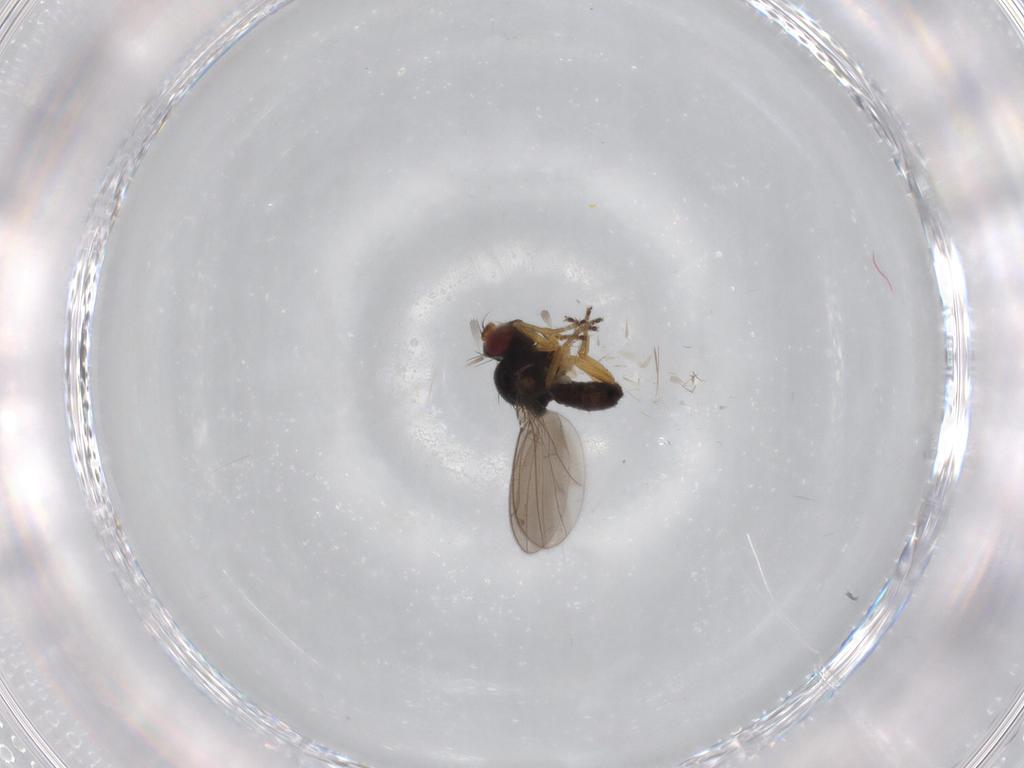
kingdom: Animalia
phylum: Arthropoda
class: Insecta
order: Diptera
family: Ephydridae
